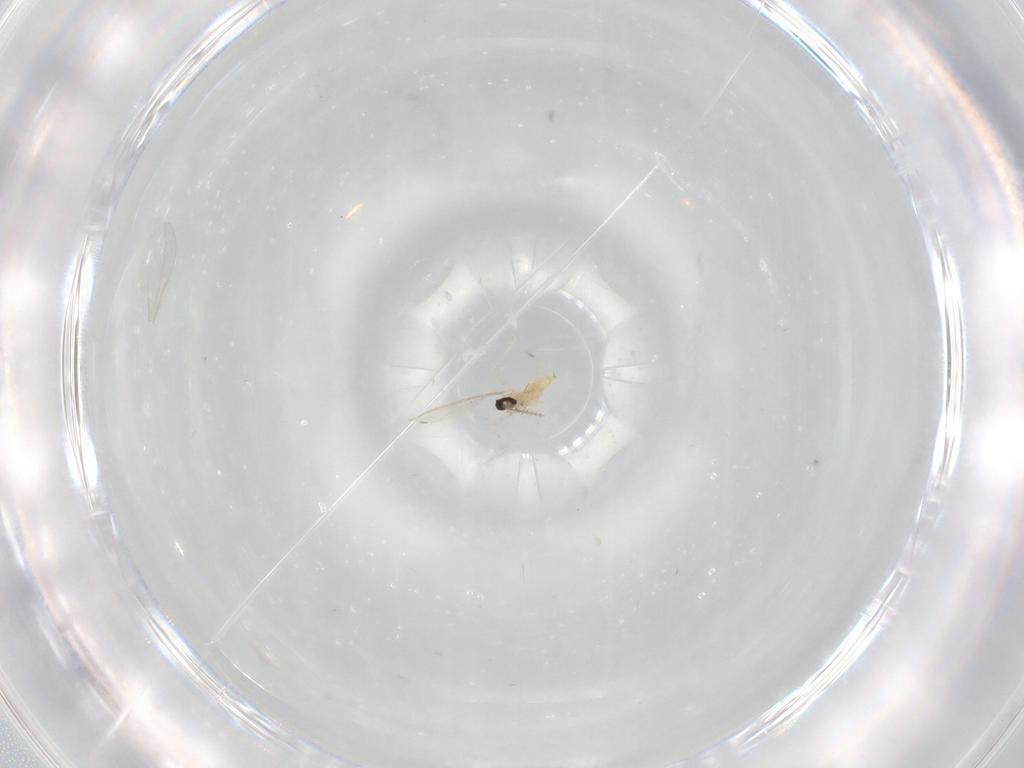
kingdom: Animalia
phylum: Arthropoda
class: Insecta
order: Diptera
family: Cecidomyiidae
